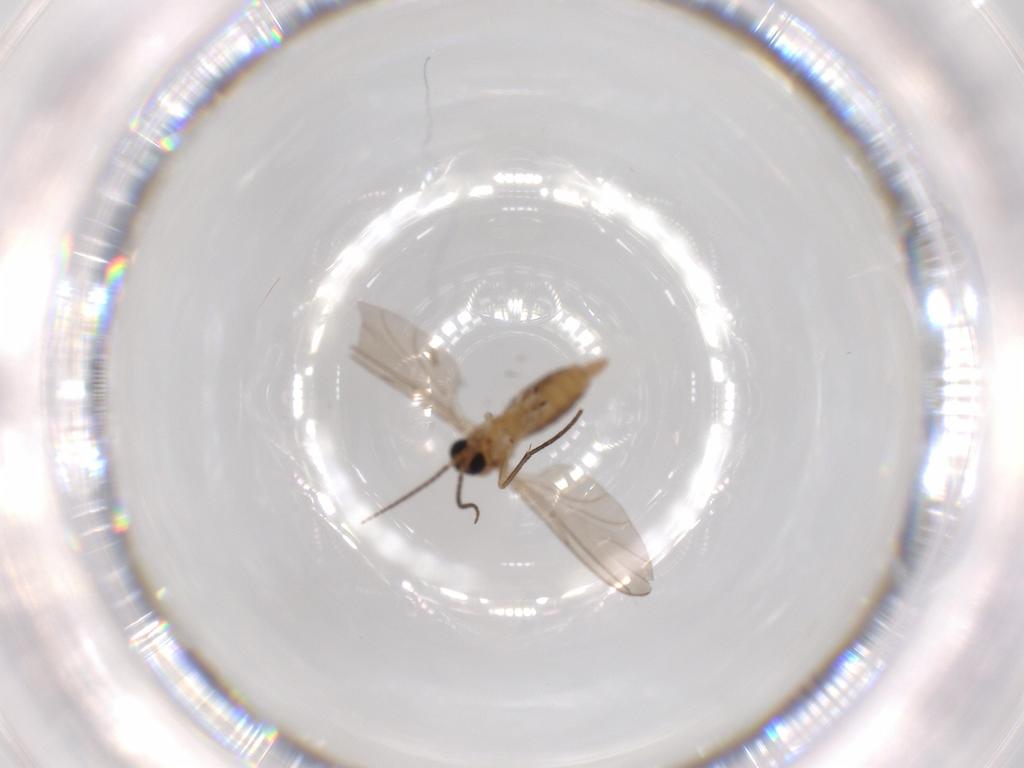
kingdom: Animalia
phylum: Arthropoda
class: Insecta
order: Diptera
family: Sciaridae
